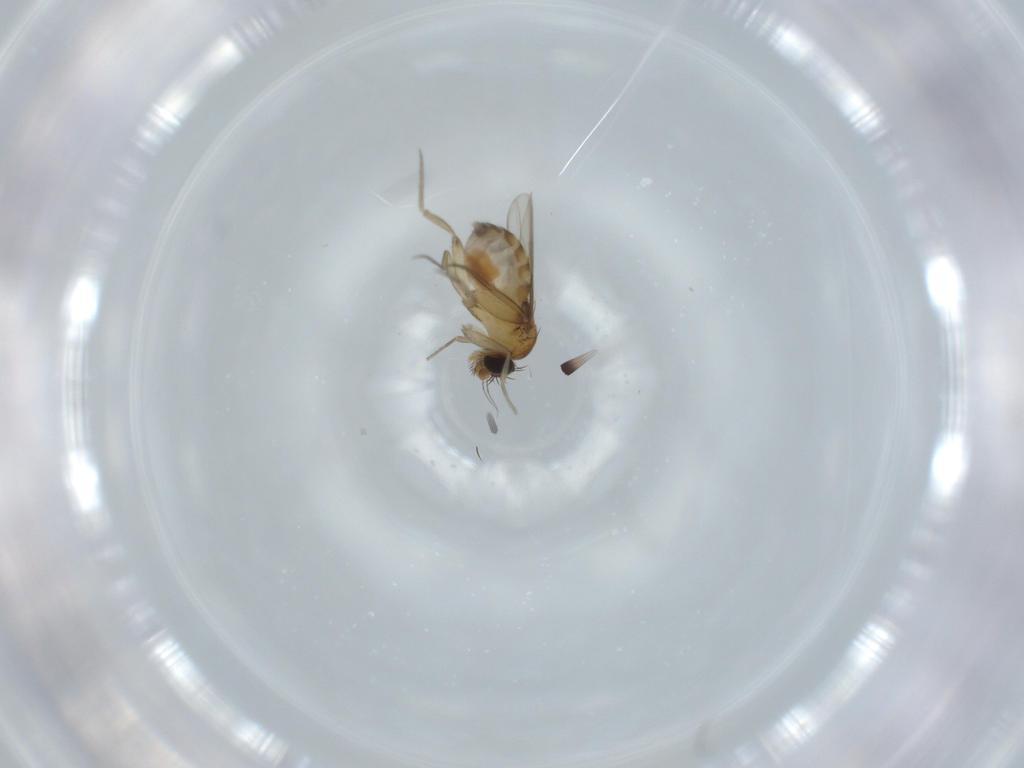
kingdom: Animalia
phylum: Arthropoda
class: Insecta
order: Diptera
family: Phoridae
